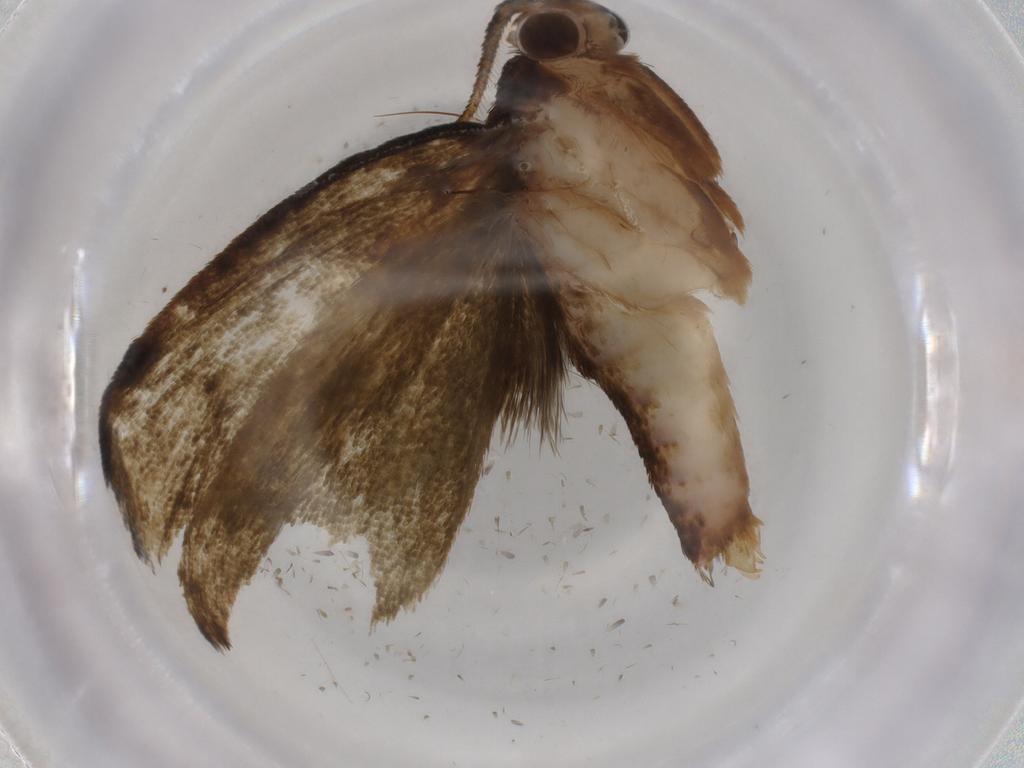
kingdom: Animalia
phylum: Arthropoda
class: Insecta
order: Lepidoptera
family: Geometridae
